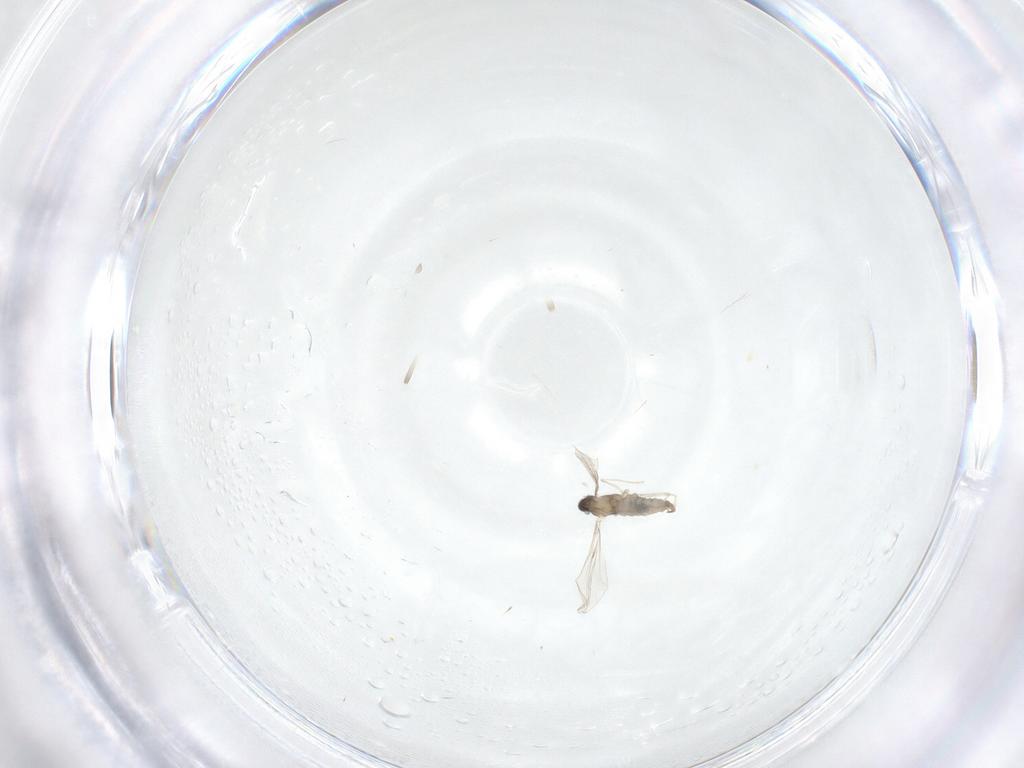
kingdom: Animalia
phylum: Arthropoda
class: Insecta
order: Diptera
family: Cecidomyiidae
